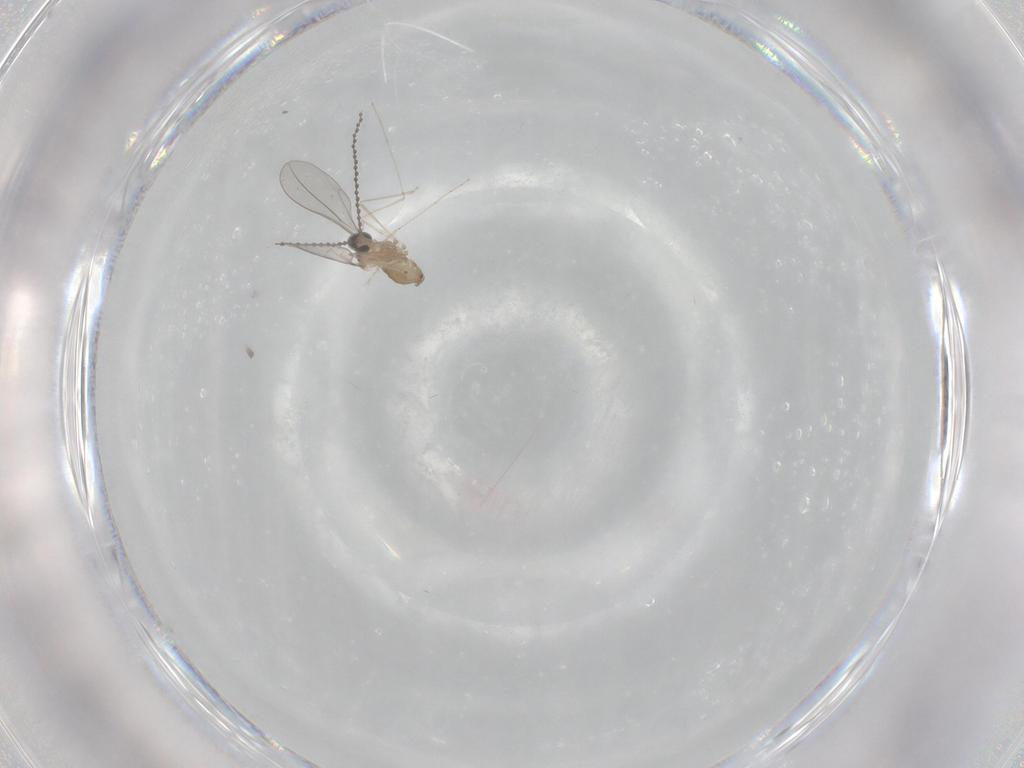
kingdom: Animalia
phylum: Arthropoda
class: Insecta
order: Diptera
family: Cecidomyiidae
